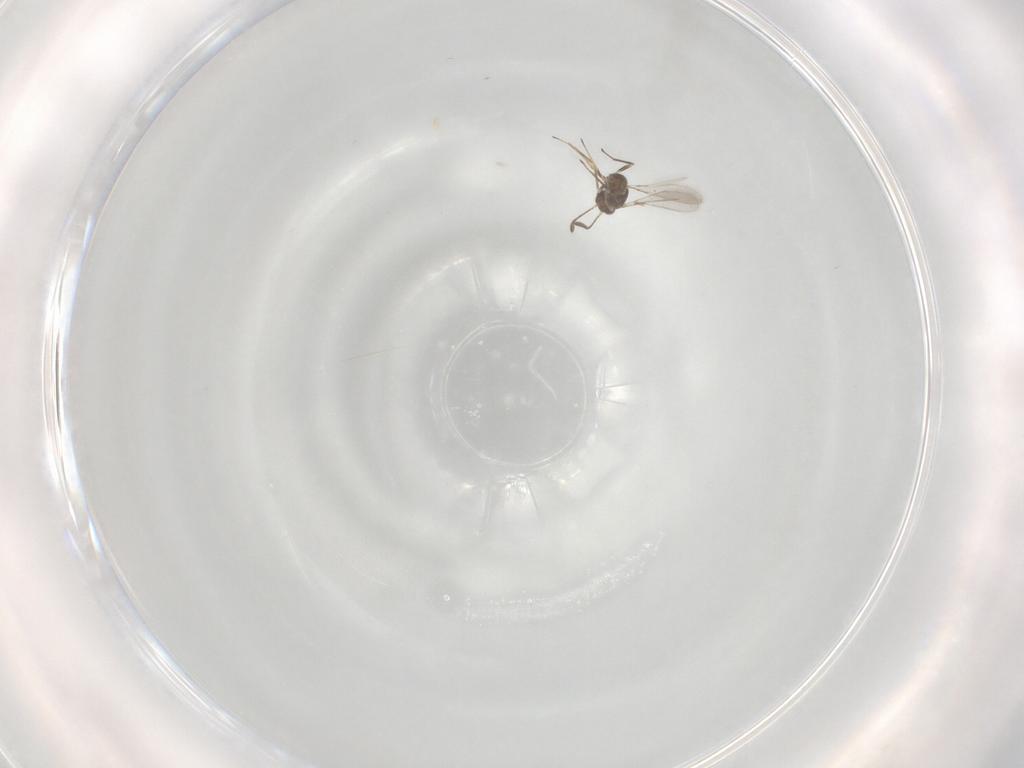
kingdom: Animalia
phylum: Arthropoda
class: Insecta
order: Hymenoptera
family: Mymaridae
